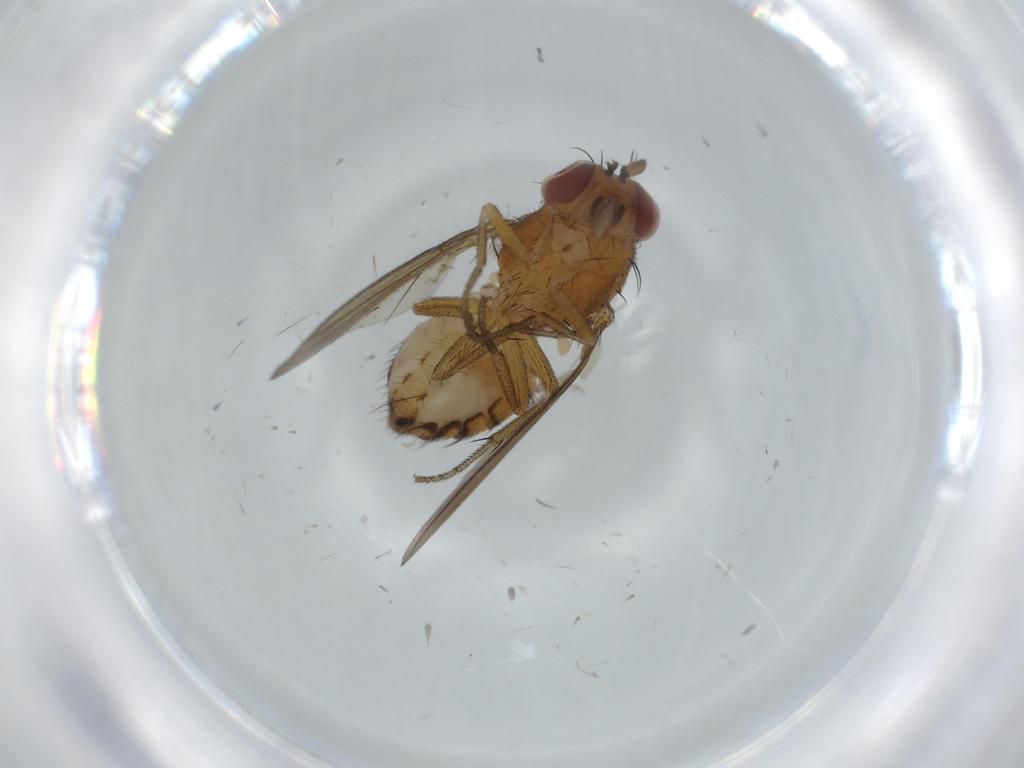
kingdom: Animalia
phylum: Arthropoda
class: Insecta
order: Diptera
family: Sciaridae
